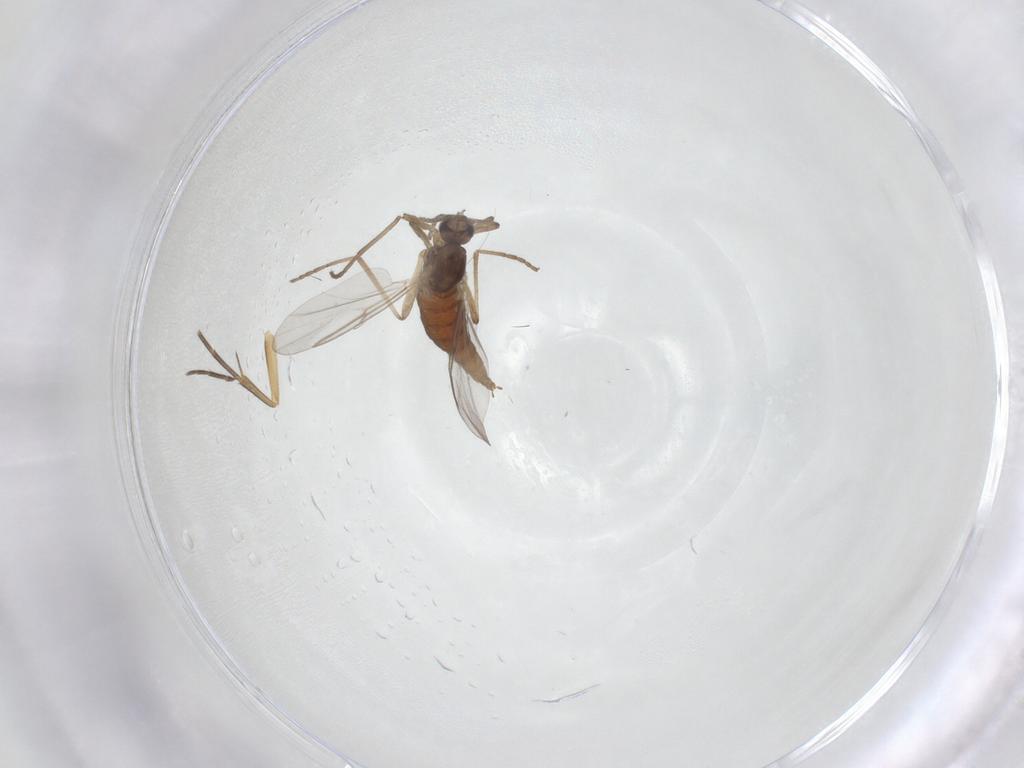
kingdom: Animalia
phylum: Arthropoda
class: Insecta
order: Diptera
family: Cecidomyiidae
